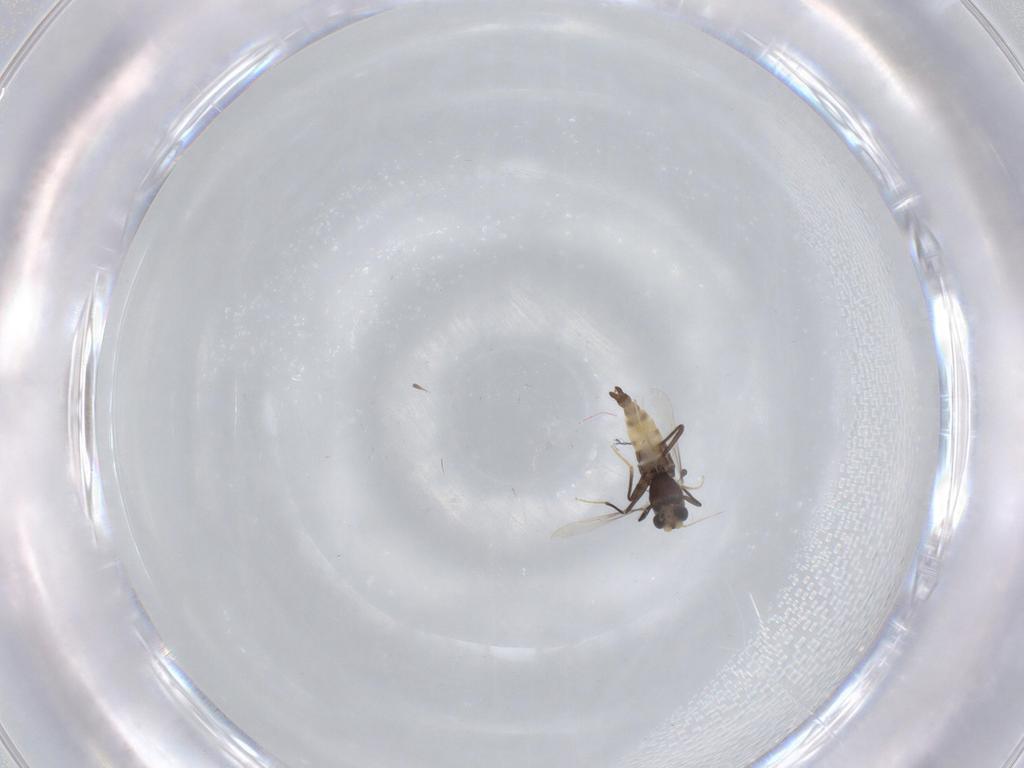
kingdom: Animalia
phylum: Arthropoda
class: Insecta
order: Diptera
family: Chironomidae
